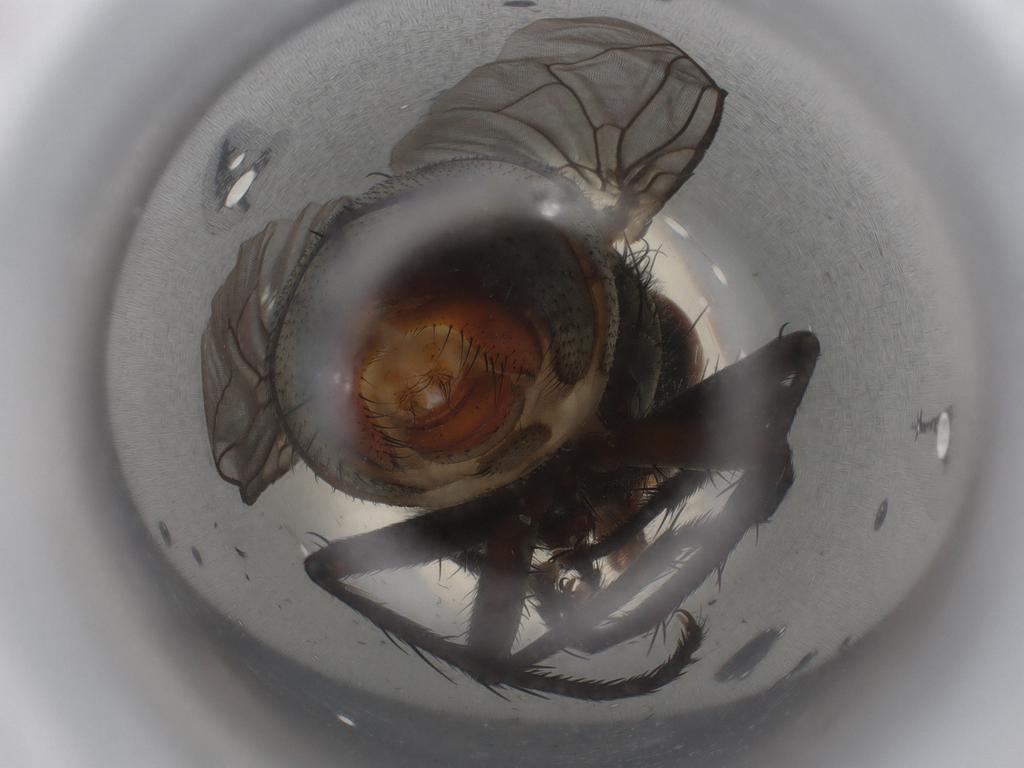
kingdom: Animalia
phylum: Arthropoda
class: Insecta
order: Diptera
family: Sarcophagidae
